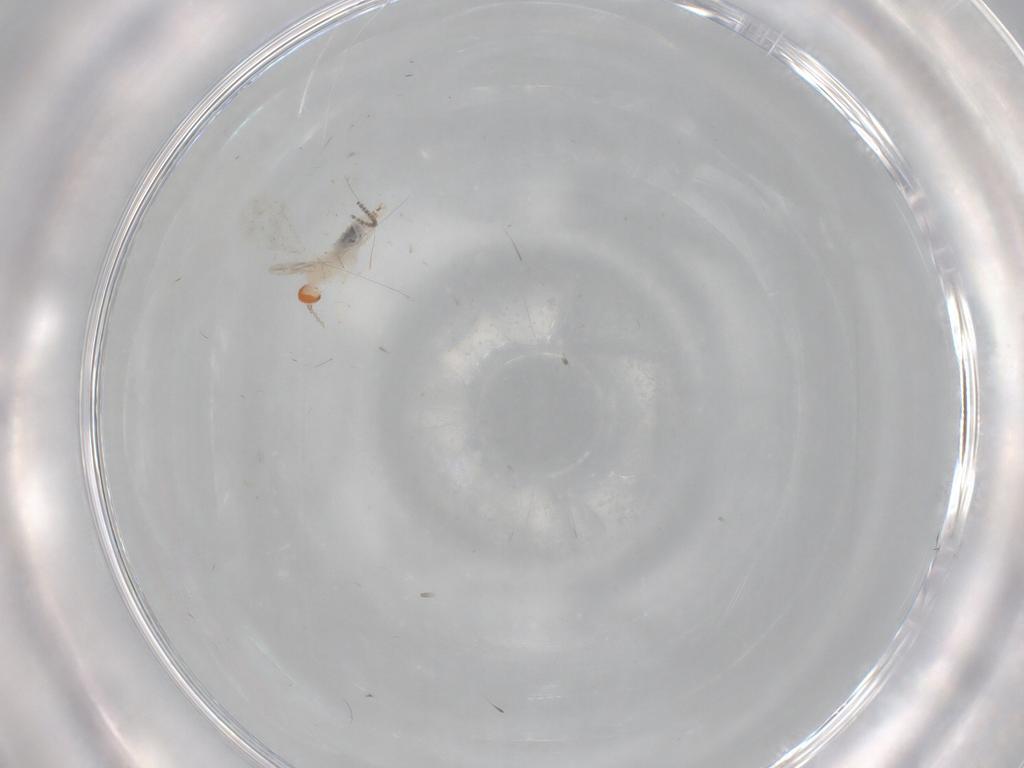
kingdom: Animalia
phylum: Arthropoda
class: Insecta
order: Diptera
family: Cecidomyiidae
